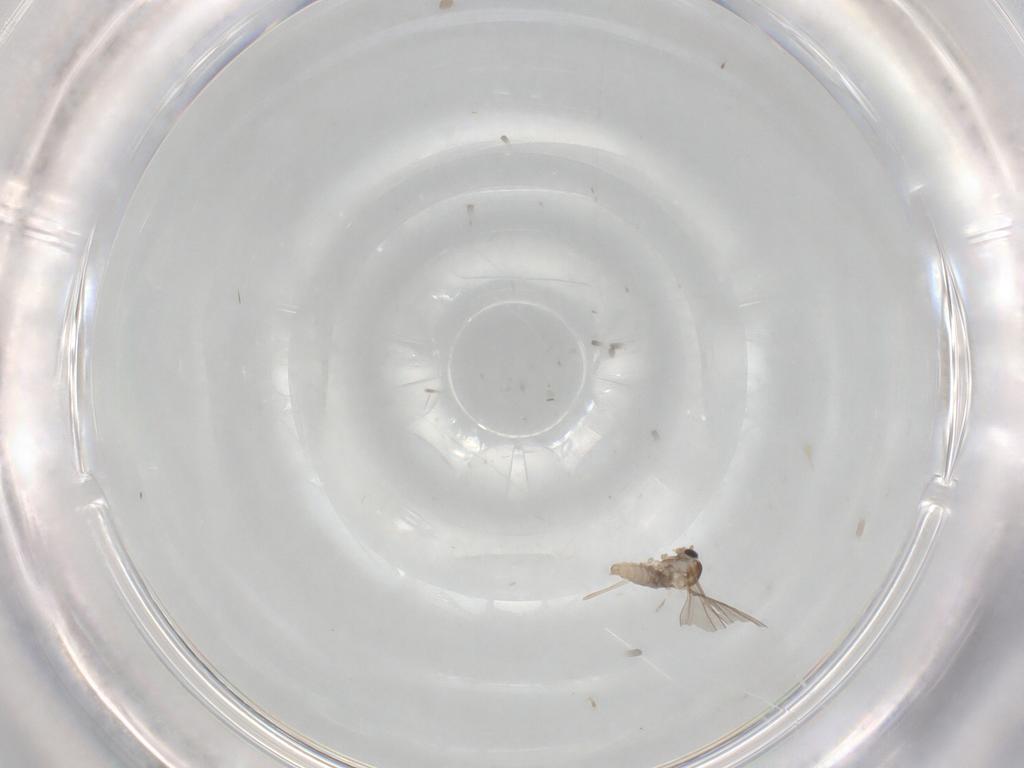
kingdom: Animalia
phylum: Arthropoda
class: Insecta
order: Diptera
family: Cecidomyiidae
